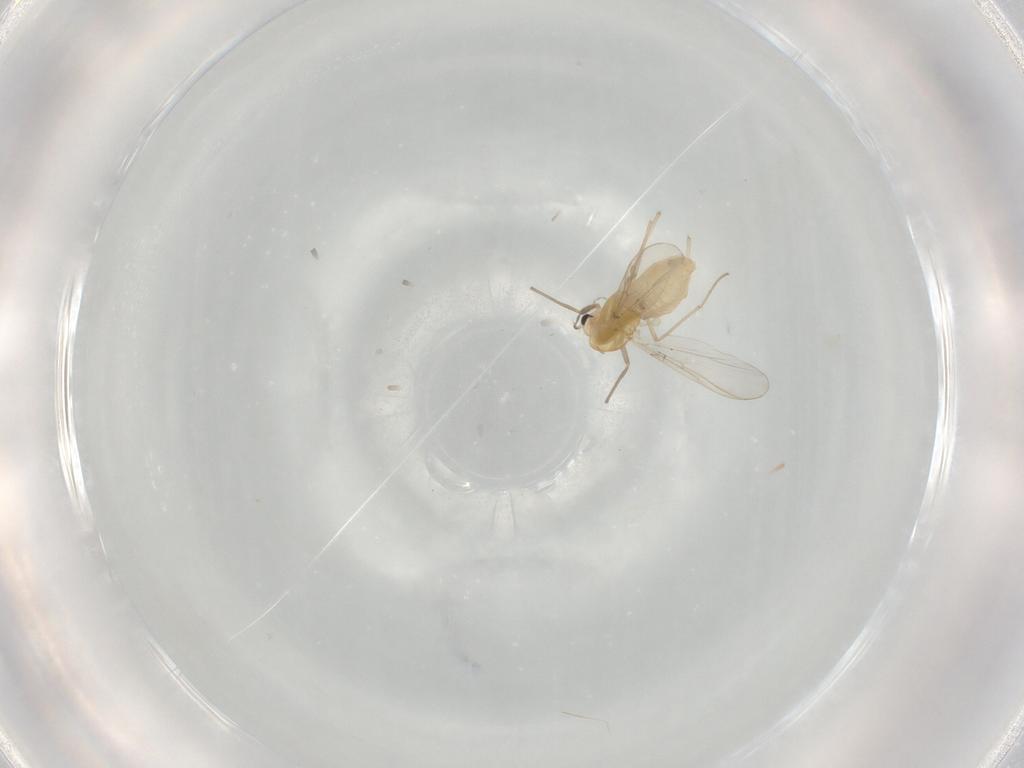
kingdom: Animalia
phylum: Arthropoda
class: Insecta
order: Diptera
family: Chironomidae
